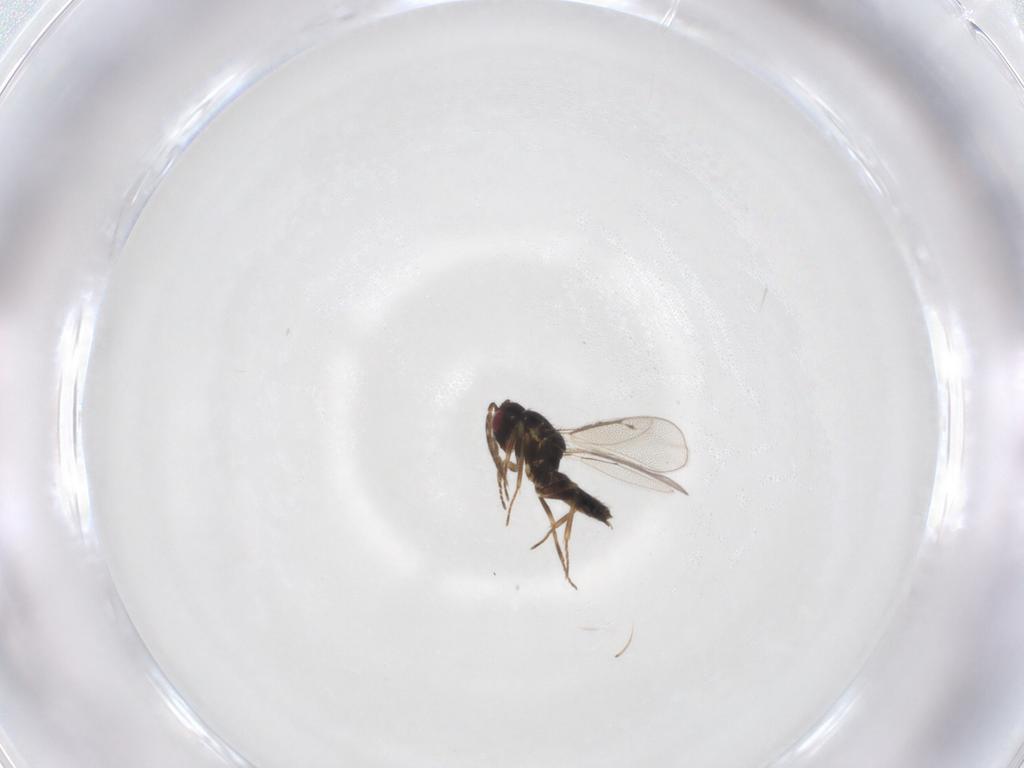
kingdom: Animalia
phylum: Arthropoda
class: Insecta
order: Hymenoptera
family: Eulophidae
